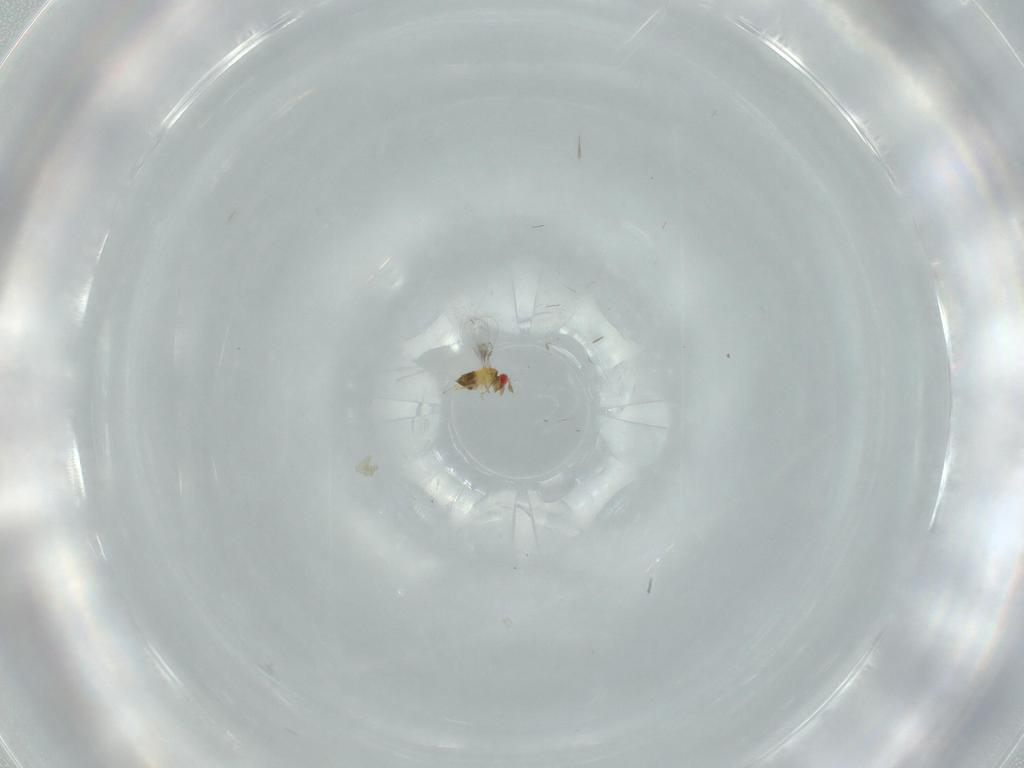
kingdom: Animalia
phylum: Arthropoda
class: Insecta
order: Hymenoptera
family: Trichogrammatidae
